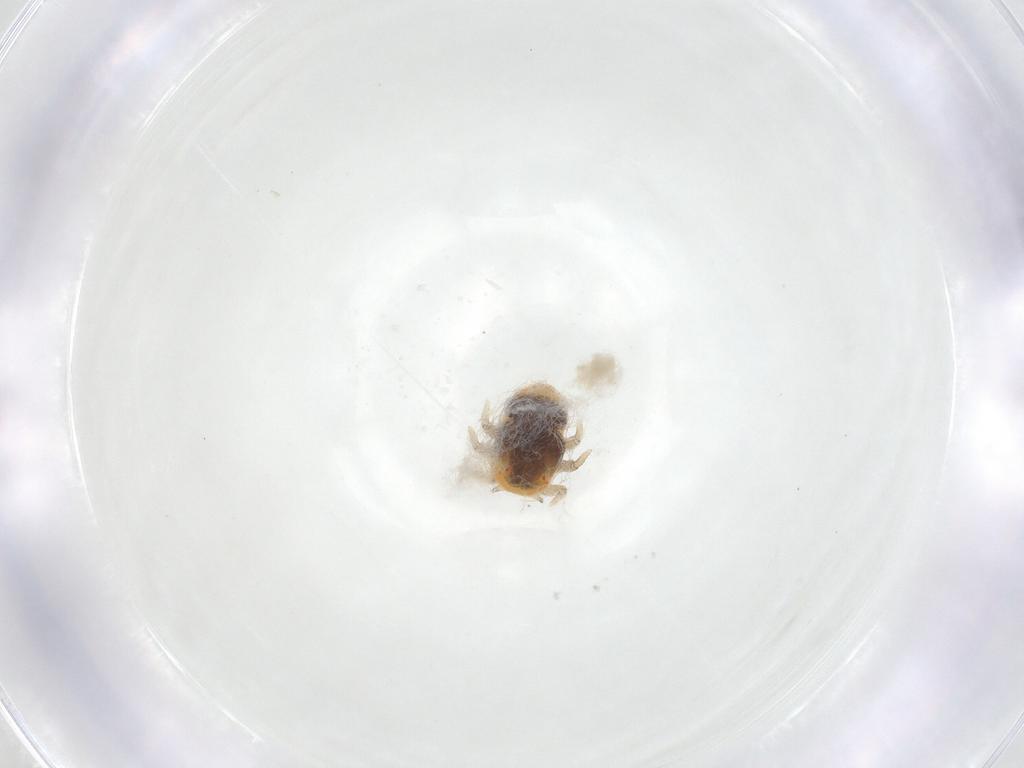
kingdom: Animalia
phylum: Arthropoda
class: Insecta
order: Hemiptera
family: Triozidae
